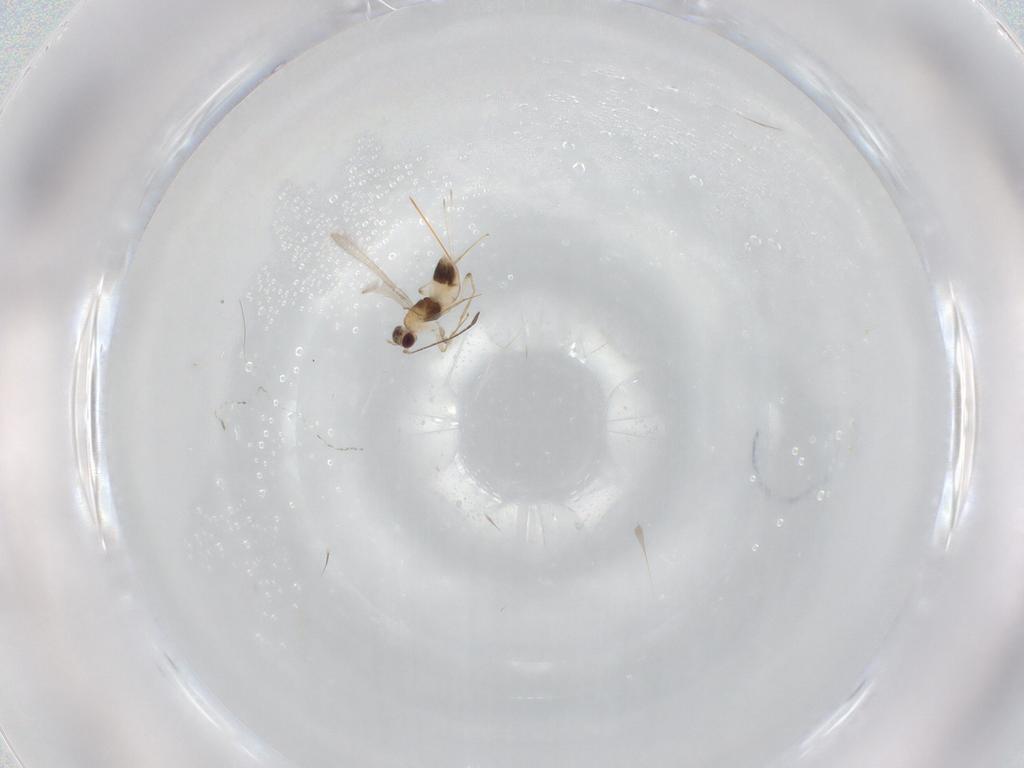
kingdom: Animalia
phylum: Arthropoda
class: Insecta
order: Hymenoptera
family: Mymaridae
